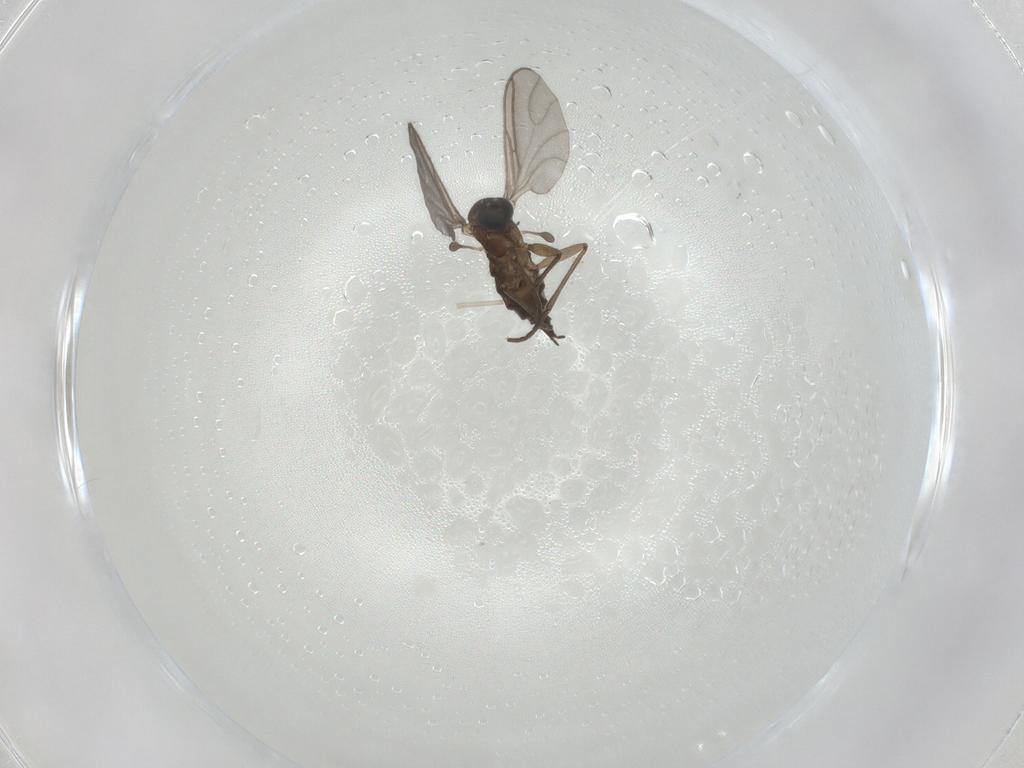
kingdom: Animalia
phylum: Arthropoda
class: Insecta
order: Diptera
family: Sciaridae
